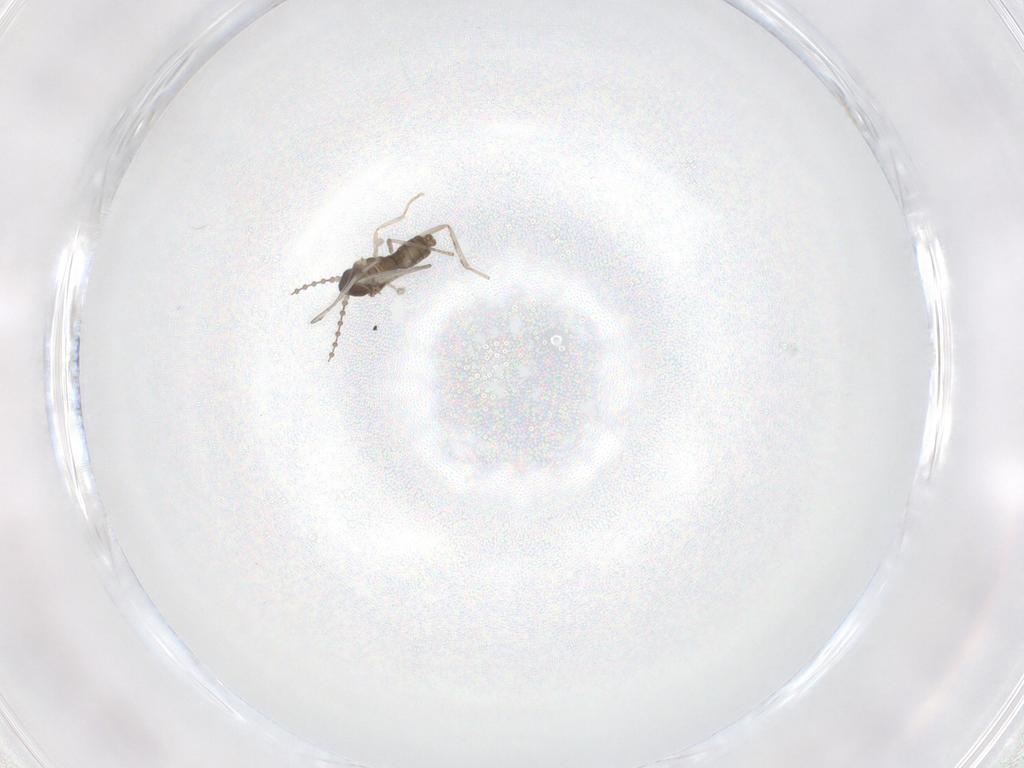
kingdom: Animalia
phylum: Arthropoda
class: Insecta
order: Diptera
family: Cecidomyiidae
